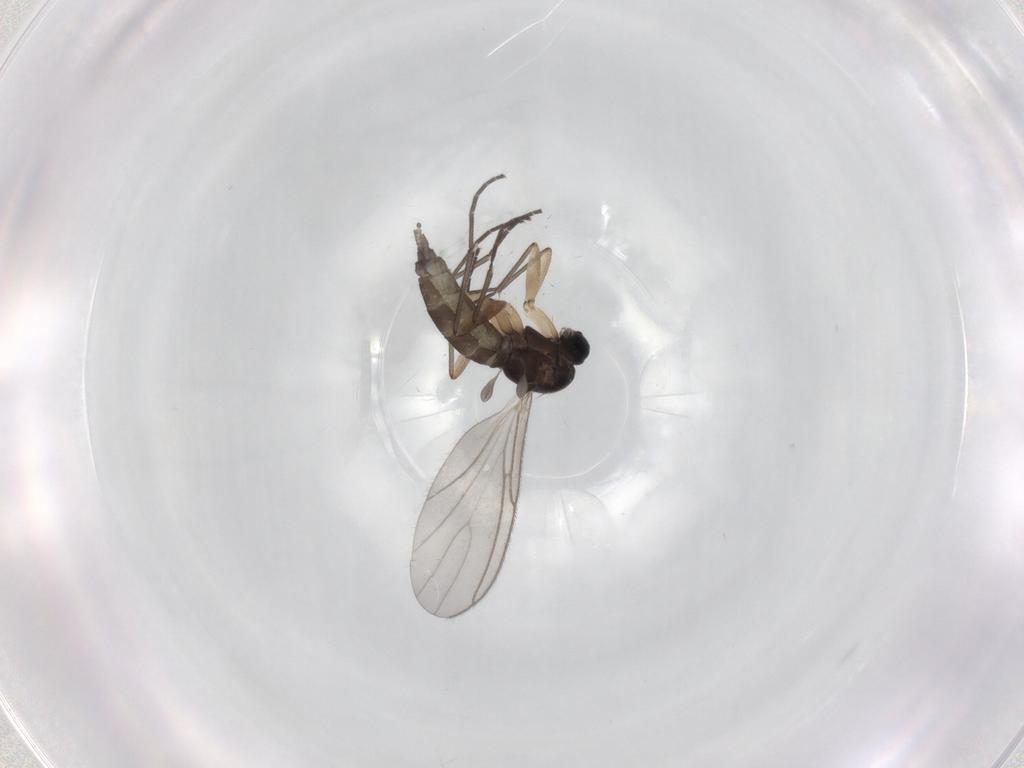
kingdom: Animalia
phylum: Arthropoda
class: Insecta
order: Diptera
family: Sciaridae
